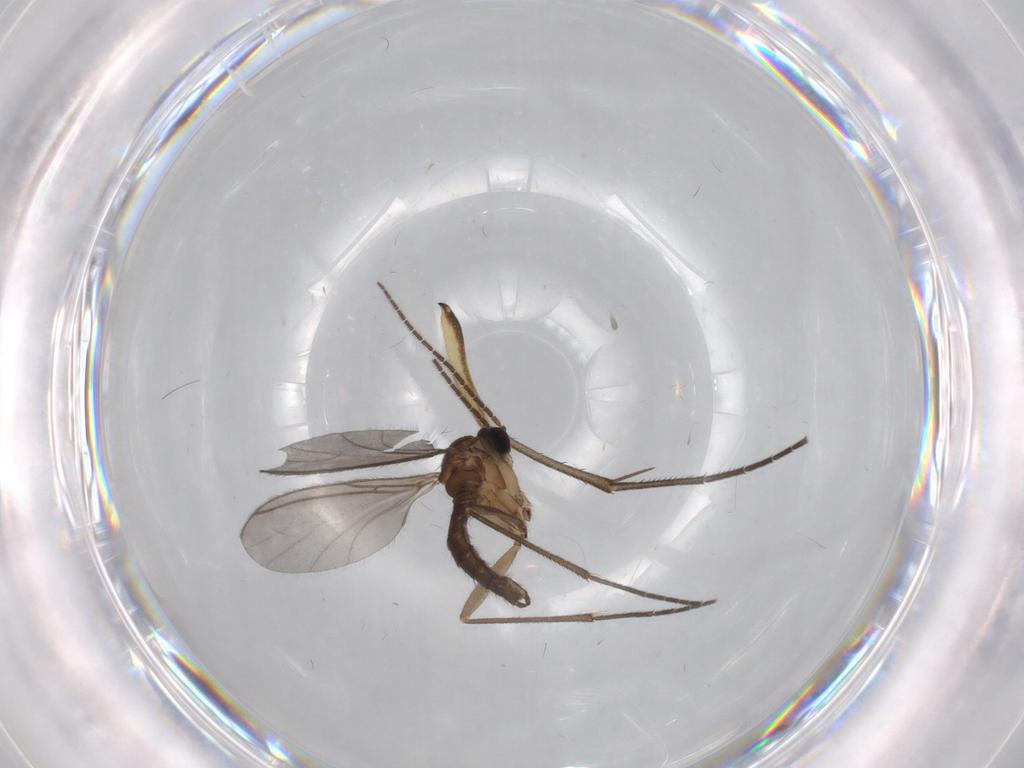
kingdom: Animalia
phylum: Arthropoda
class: Insecta
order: Diptera
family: Mycetophilidae
